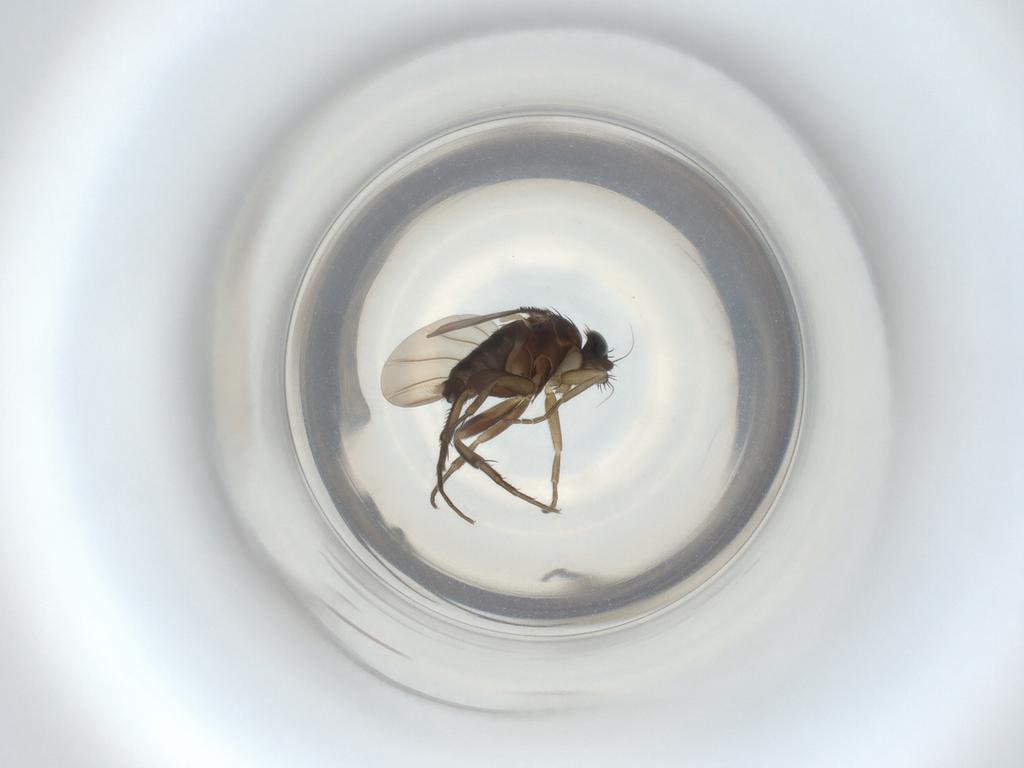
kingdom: Animalia
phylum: Arthropoda
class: Insecta
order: Diptera
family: Phoridae
